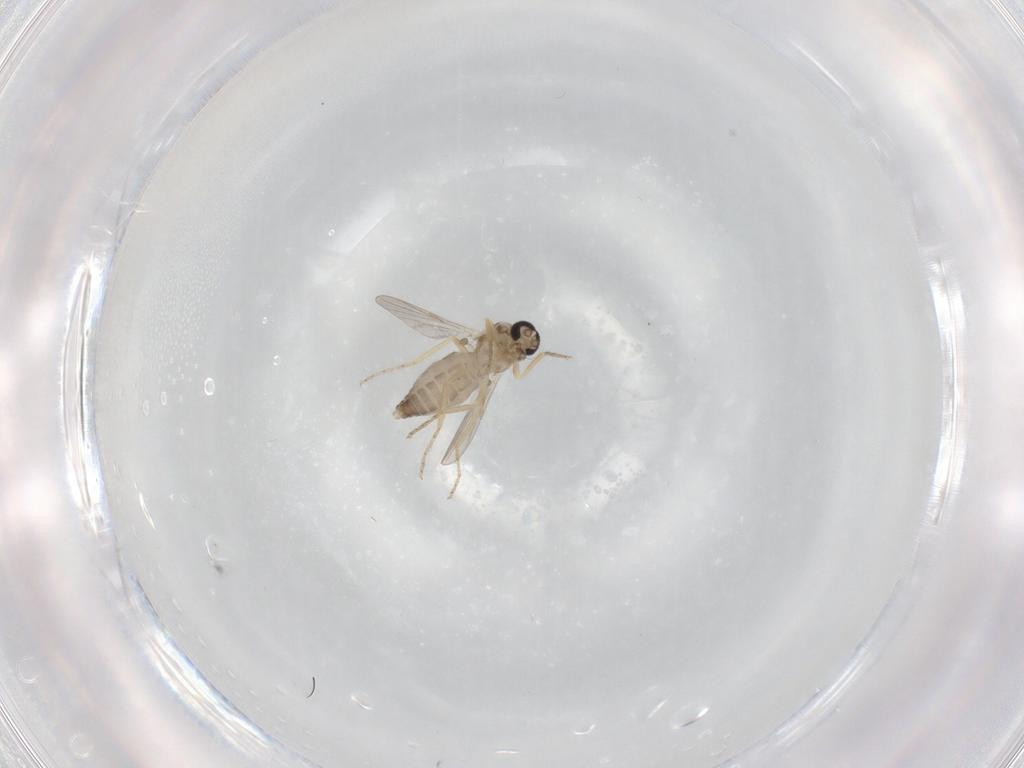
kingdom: Animalia
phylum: Arthropoda
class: Insecta
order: Diptera
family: Ceratopogonidae
